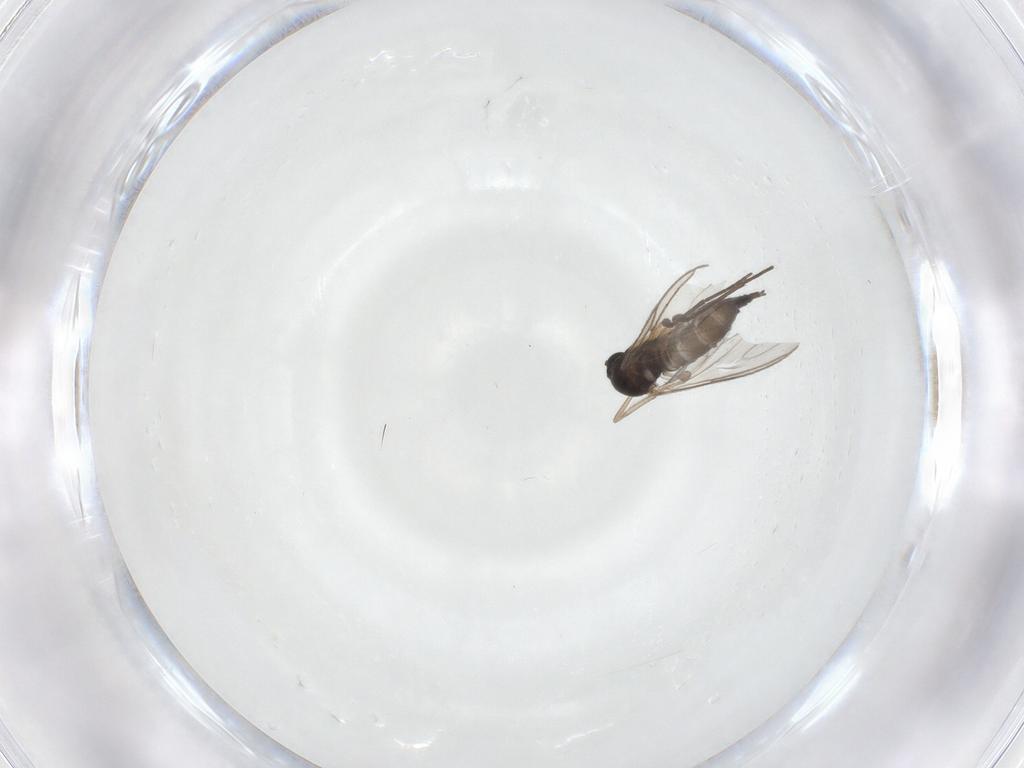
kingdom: Animalia
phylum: Arthropoda
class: Insecta
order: Diptera
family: Sciaridae
